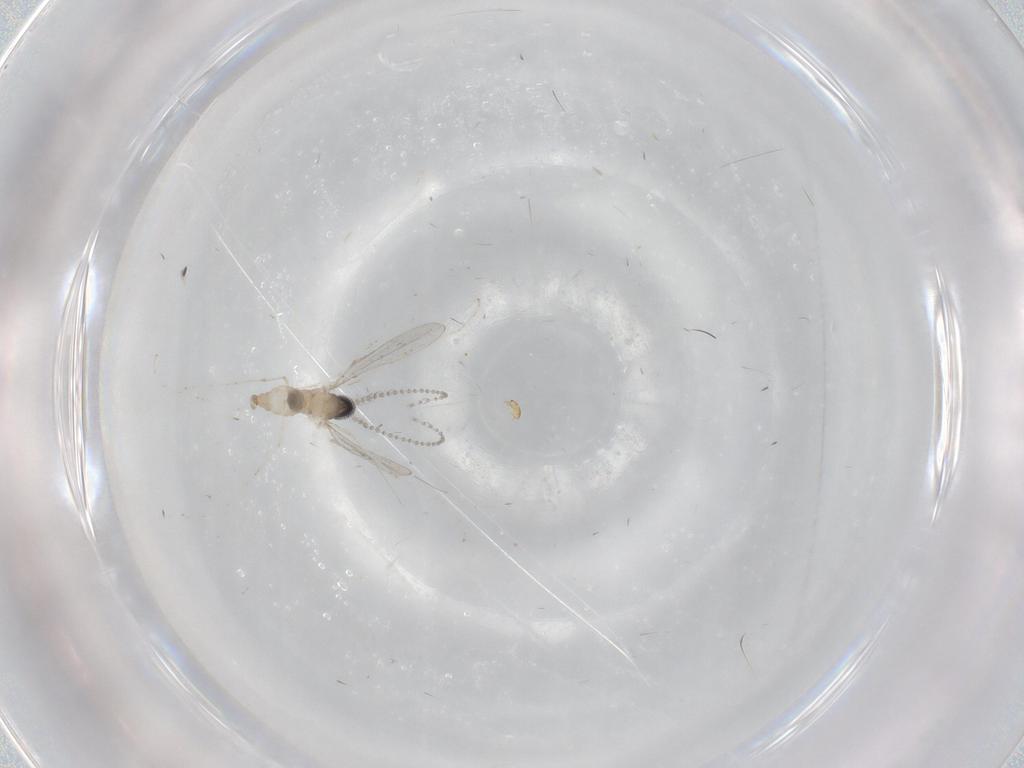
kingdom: Animalia
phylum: Arthropoda
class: Insecta
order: Diptera
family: Cecidomyiidae
